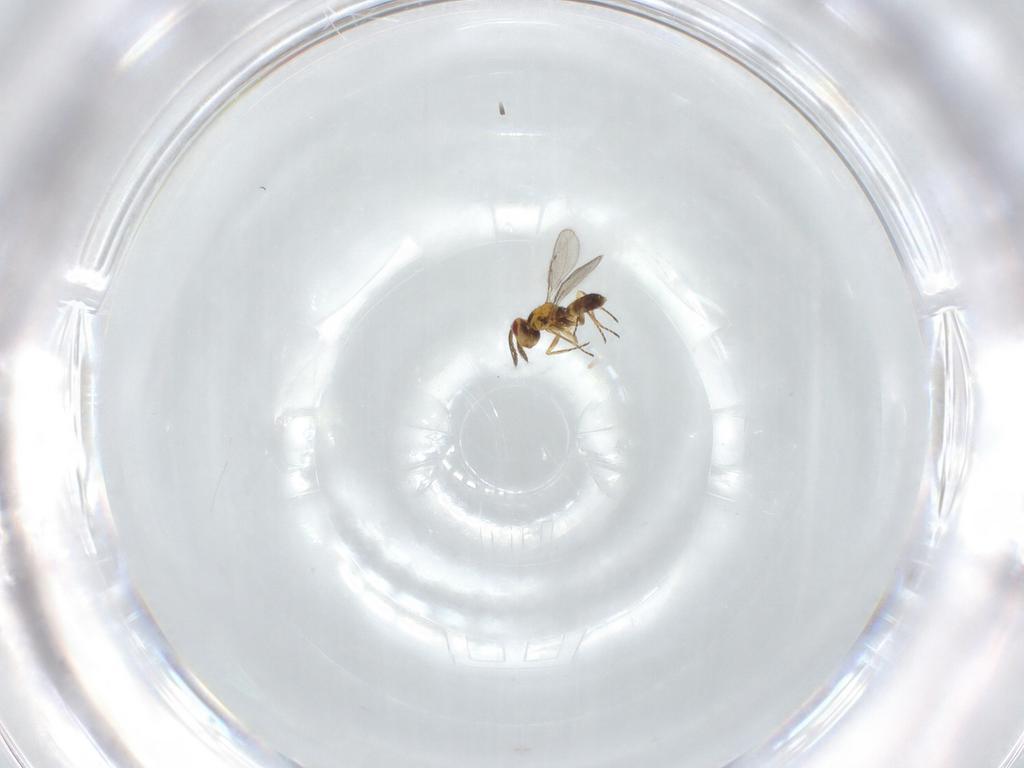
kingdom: Animalia
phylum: Arthropoda
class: Insecta
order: Hymenoptera
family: Eulophidae
